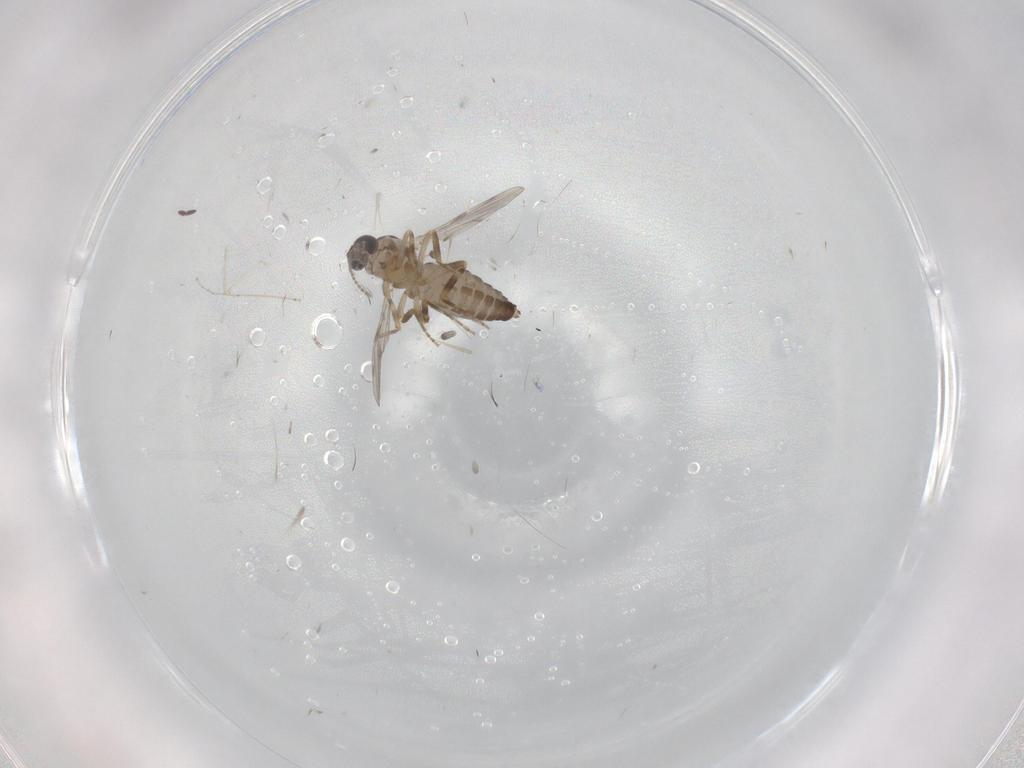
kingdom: Animalia
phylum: Arthropoda
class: Insecta
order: Diptera
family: Ceratopogonidae
